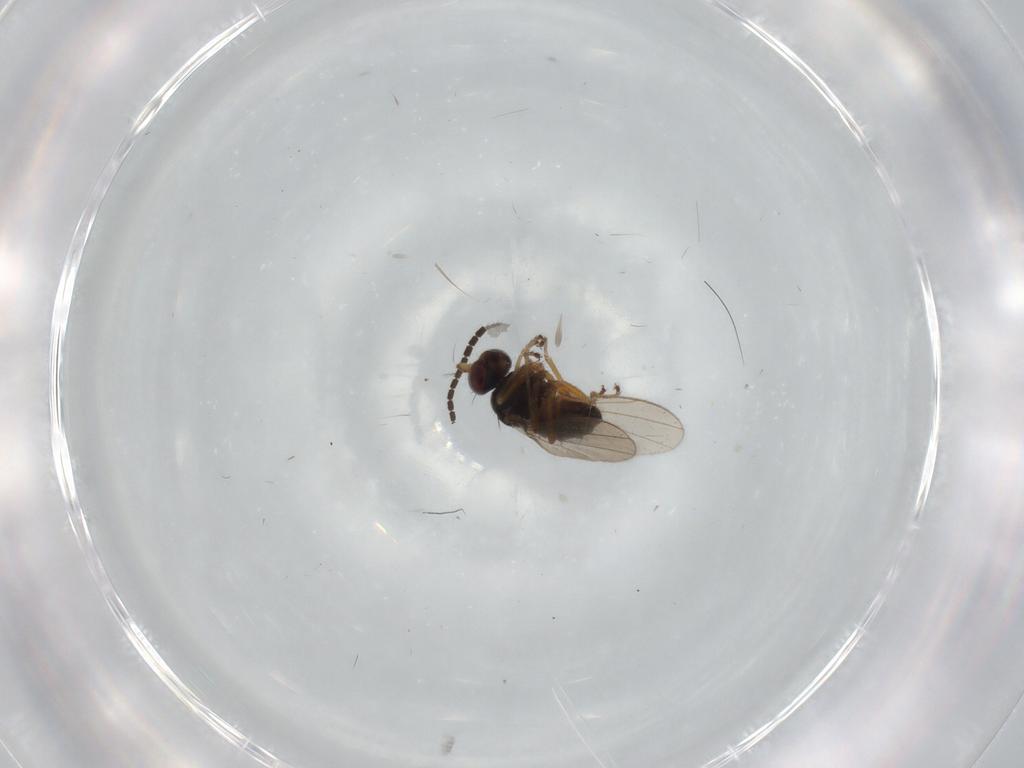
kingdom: Animalia
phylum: Arthropoda
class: Insecta
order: Diptera
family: Ephydridae
